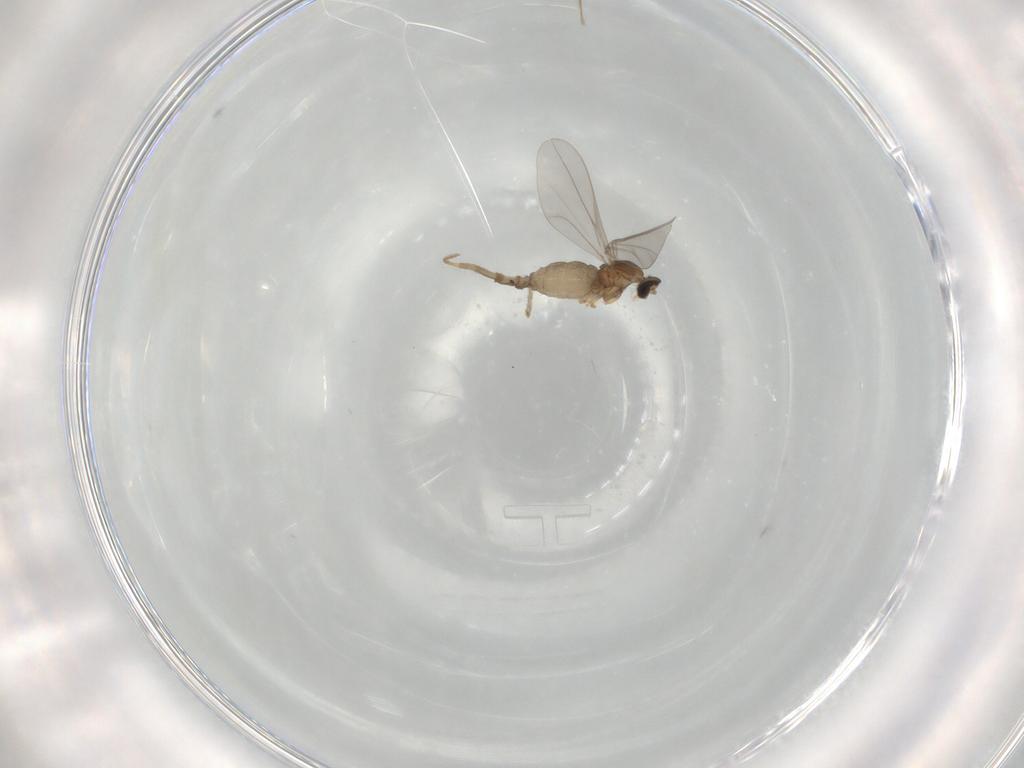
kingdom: Animalia
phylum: Arthropoda
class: Insecta
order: Diptera
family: Cecidomyiidae
